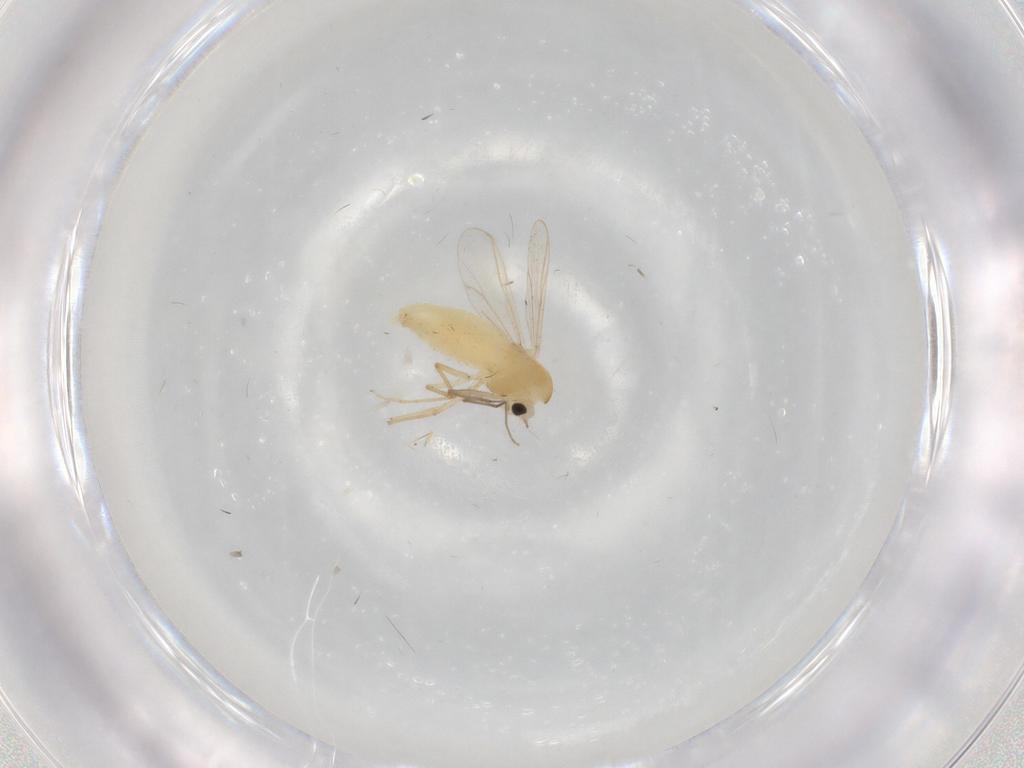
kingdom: Animalia
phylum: Arthropoda
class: Insecta
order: Diptera
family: Chironomidae
